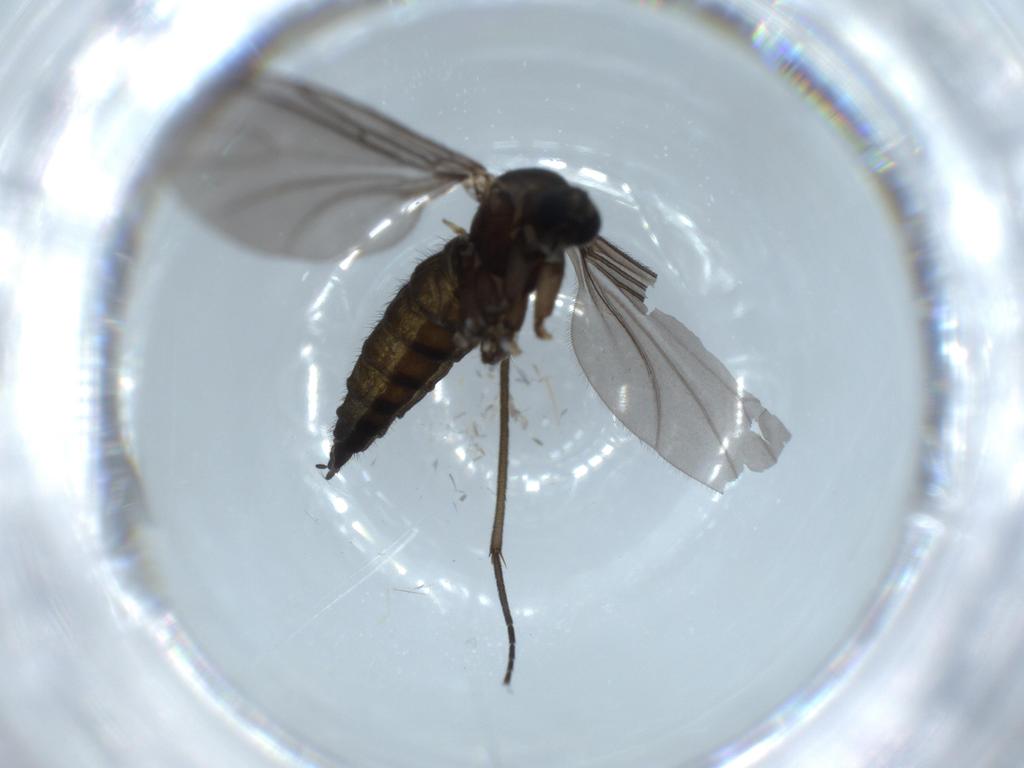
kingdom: Animalia
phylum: Arthropoda
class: Insecta
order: Diptera
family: Sciaridae
